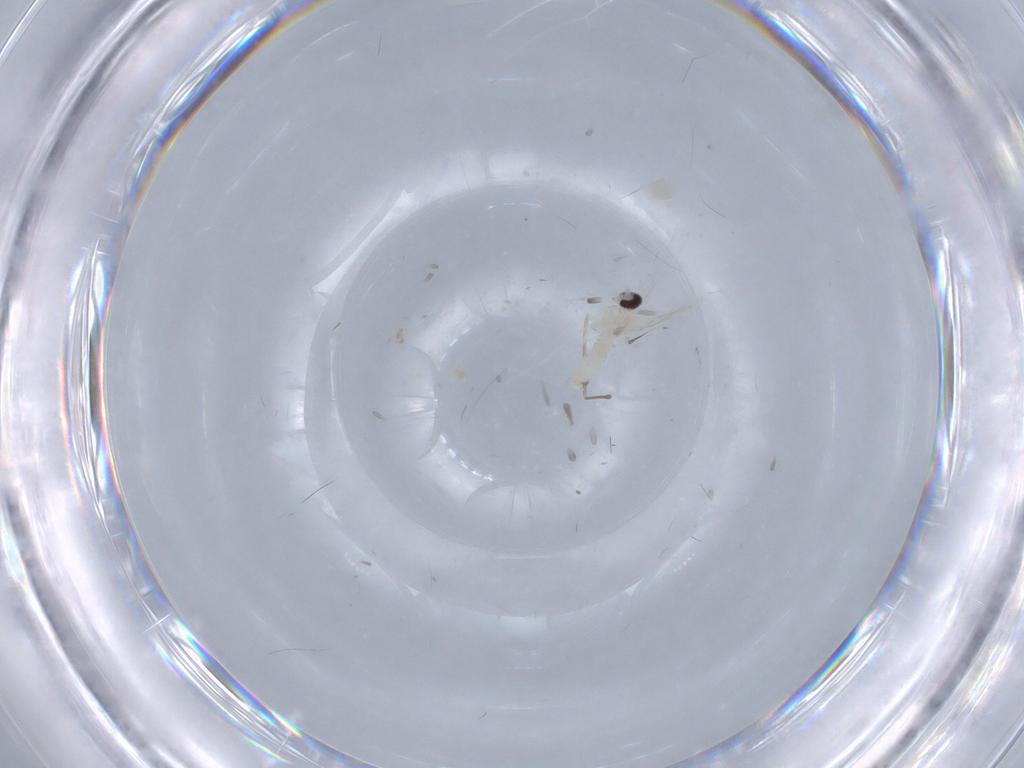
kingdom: Animalia
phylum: Arthropoda
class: Insecta
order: Diptera
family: Cecidomyiidae
